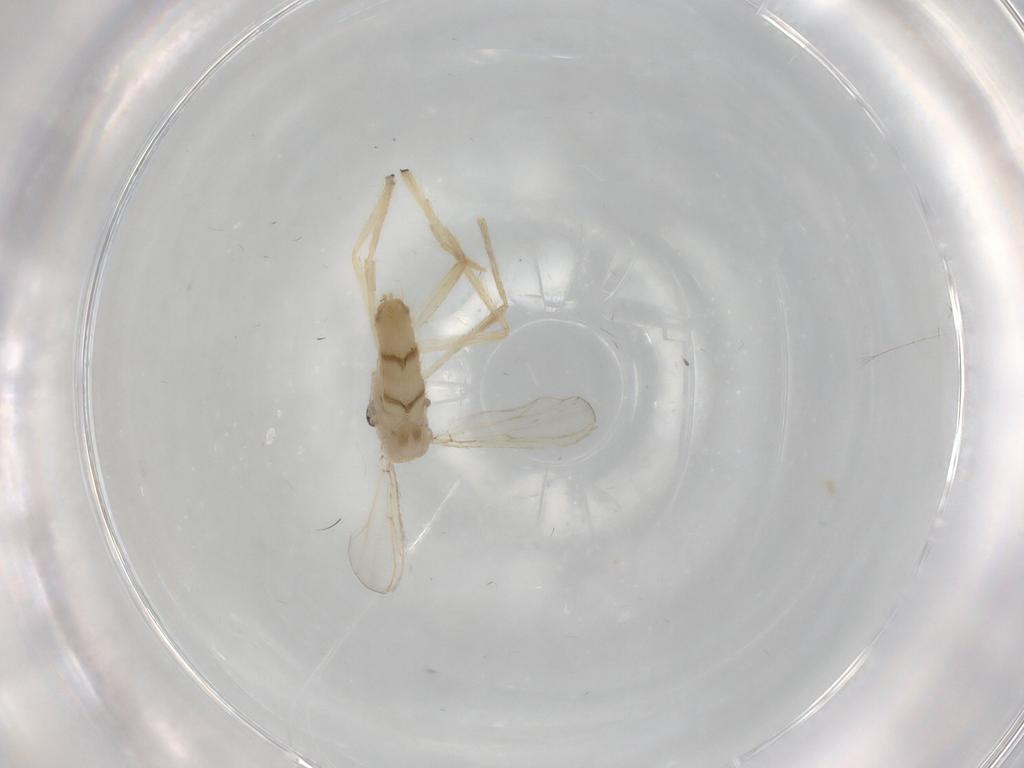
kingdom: Animalia
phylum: Arthropoda
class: Insecta
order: Diptera
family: Chironomidae
